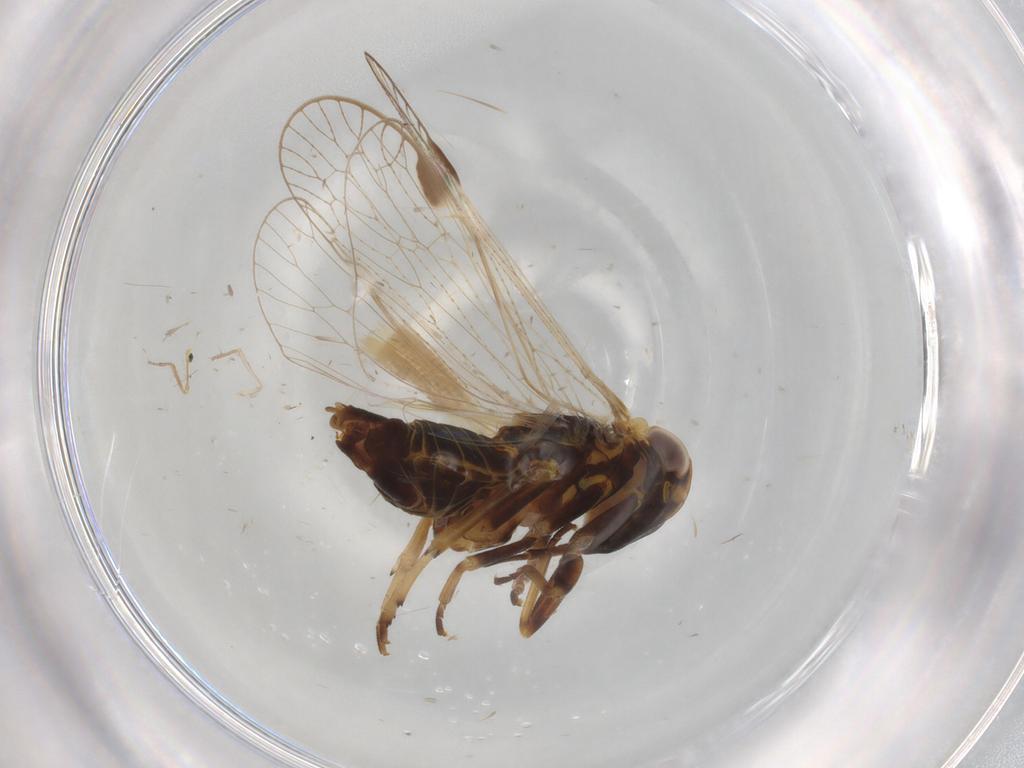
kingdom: Animalia
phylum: Arthropoda
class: Insecta
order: Hemiptera
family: Cixiidae
